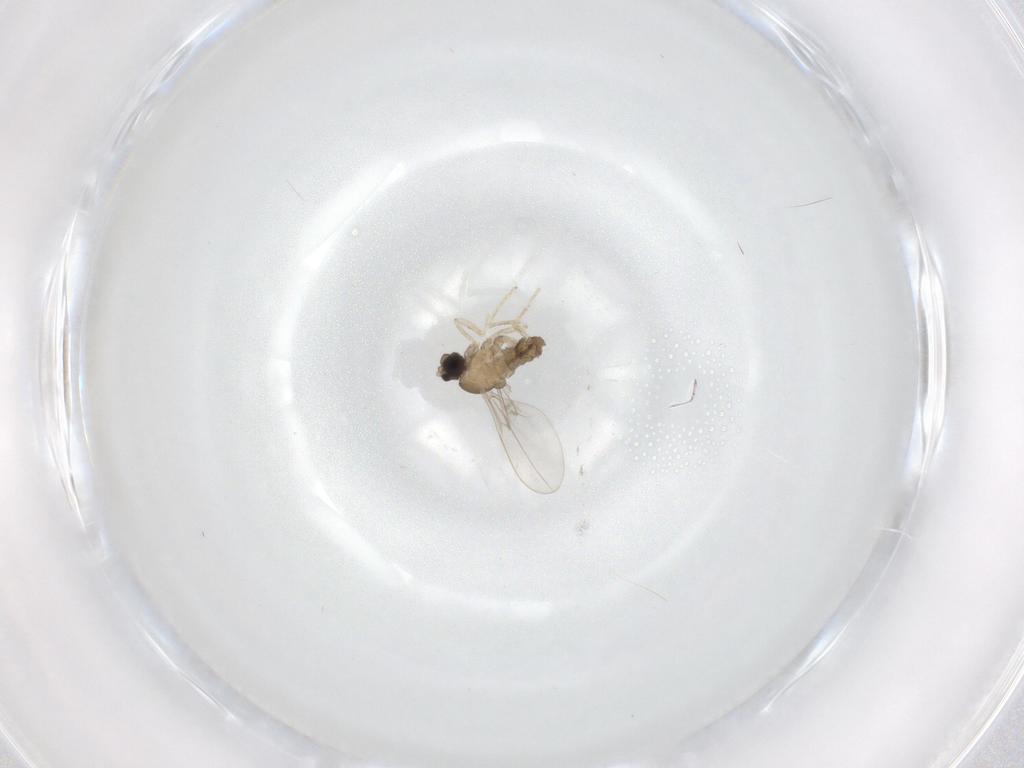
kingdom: Animalia
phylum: Arthropoda
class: Insecta
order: Diptera
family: Cecidomyiidae
